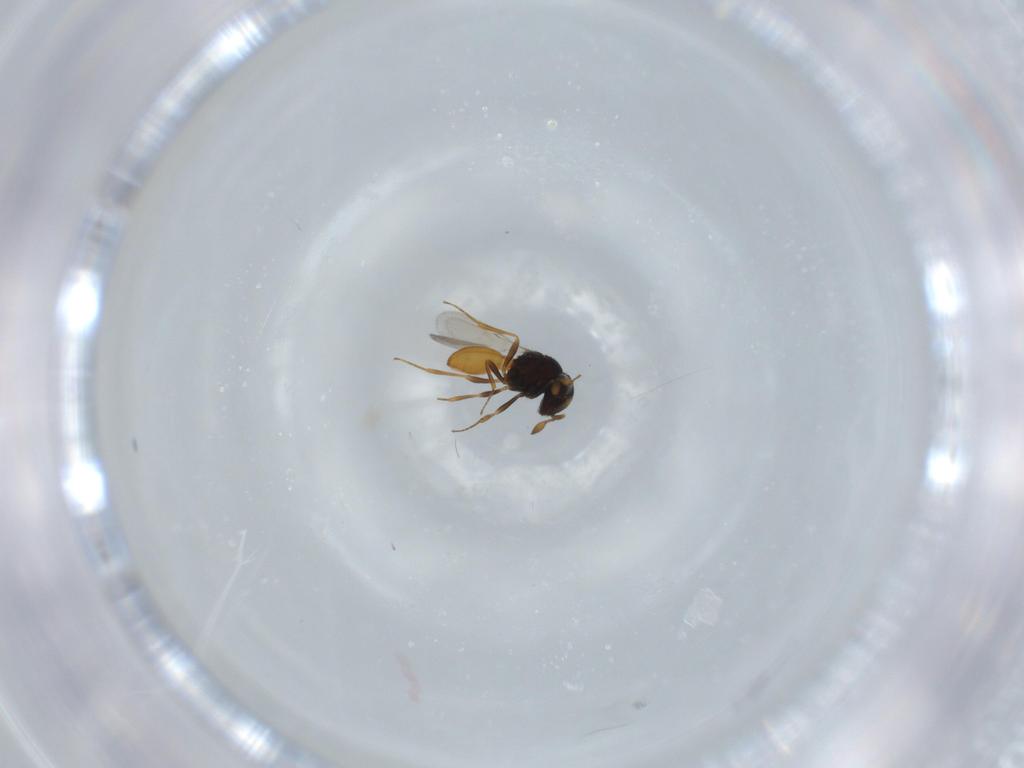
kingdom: Animalia
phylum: Arthropoda
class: Insecta
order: Hymenoptera
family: Scelionidae
